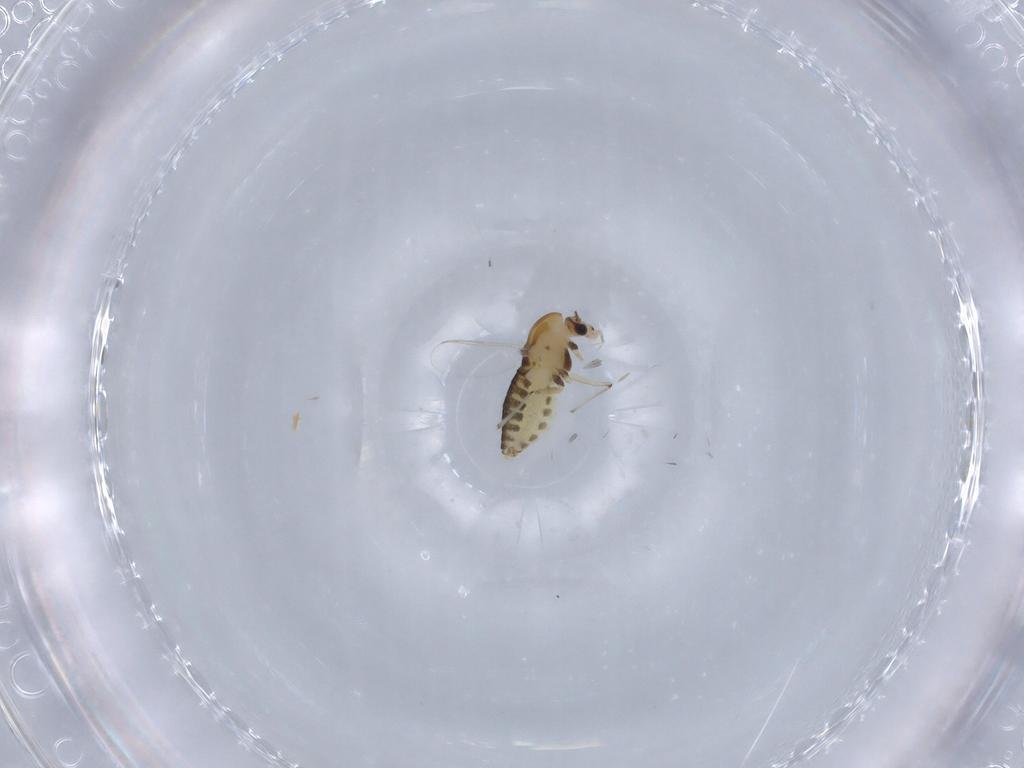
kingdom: Animalia
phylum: Arthropoda
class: Insecta
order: Diptera
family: Chironomidae
